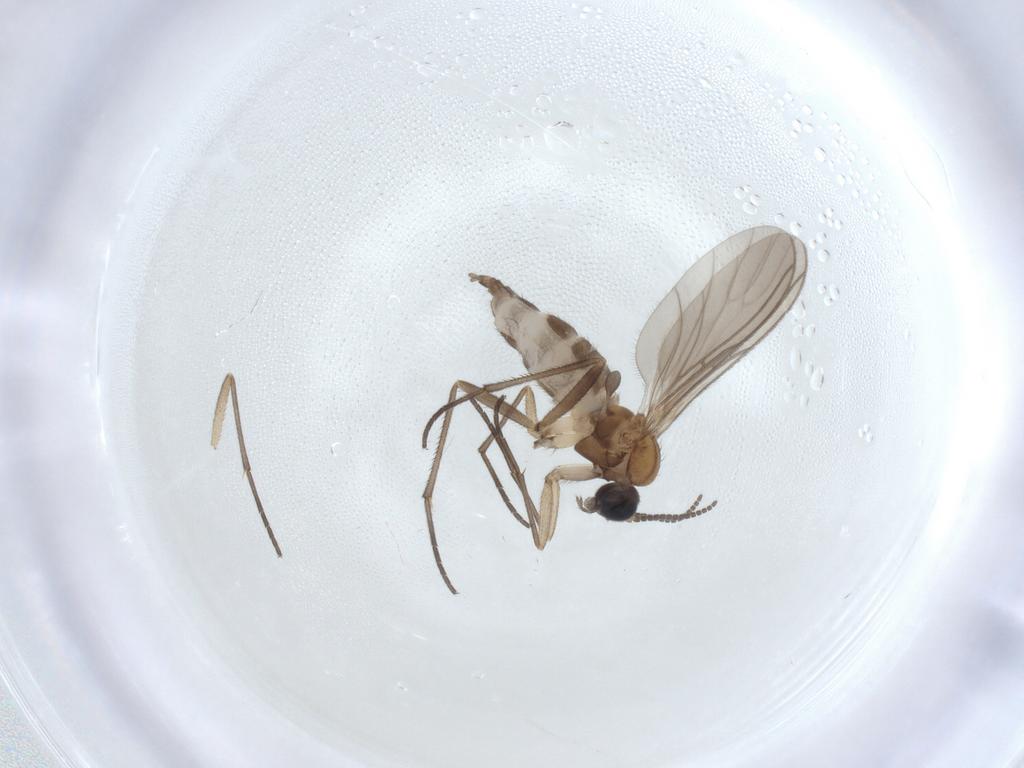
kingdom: Animalia
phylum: Arthropoda
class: Insecta
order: Diptera
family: Sciaridae
